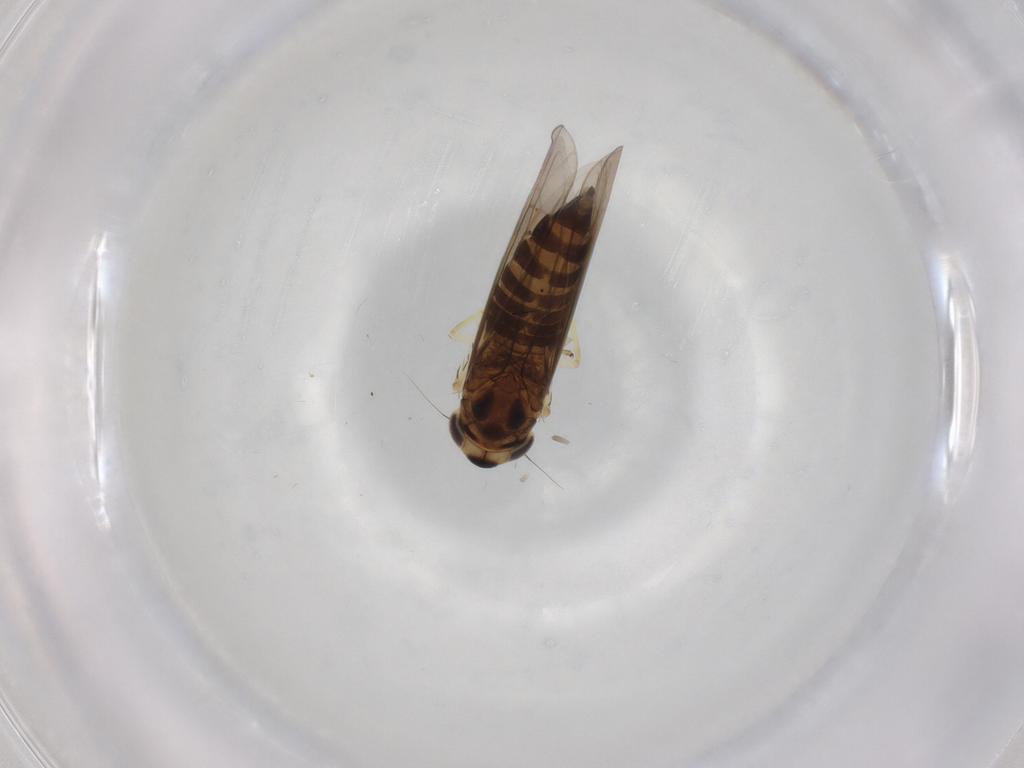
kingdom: Animalia
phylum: Arthropoda
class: Insecta
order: Hemiptera
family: Cicadellidae
